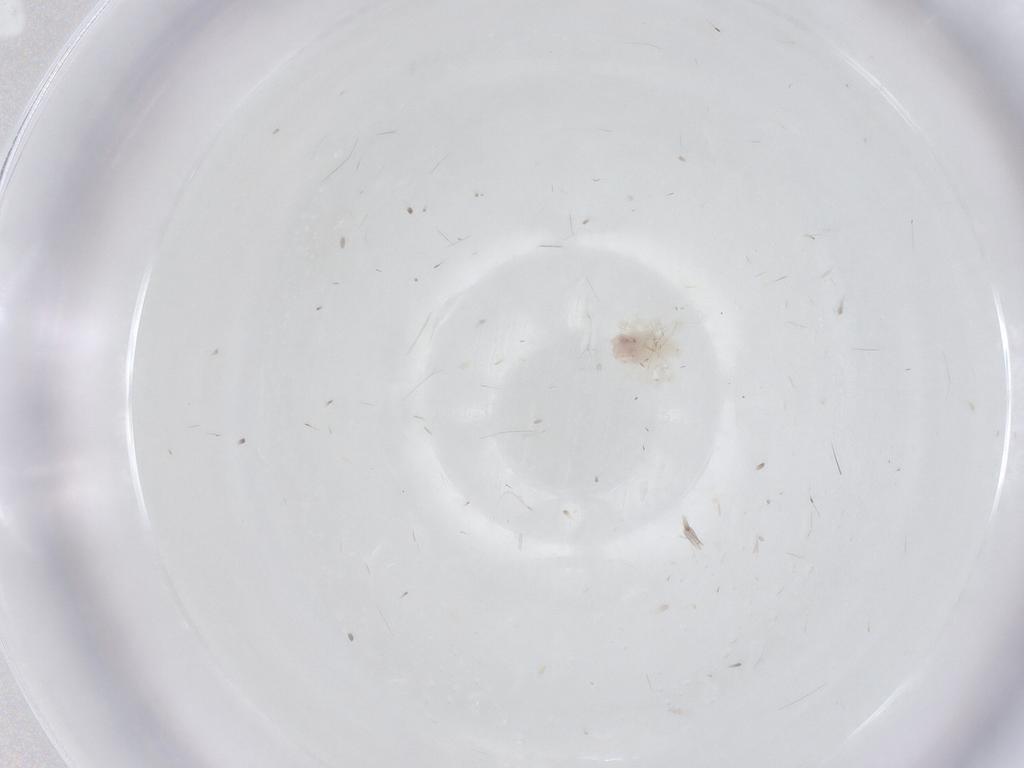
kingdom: Animalia
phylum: Arthropoda
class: Arachnida
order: Trombidiformes
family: Anystidae
